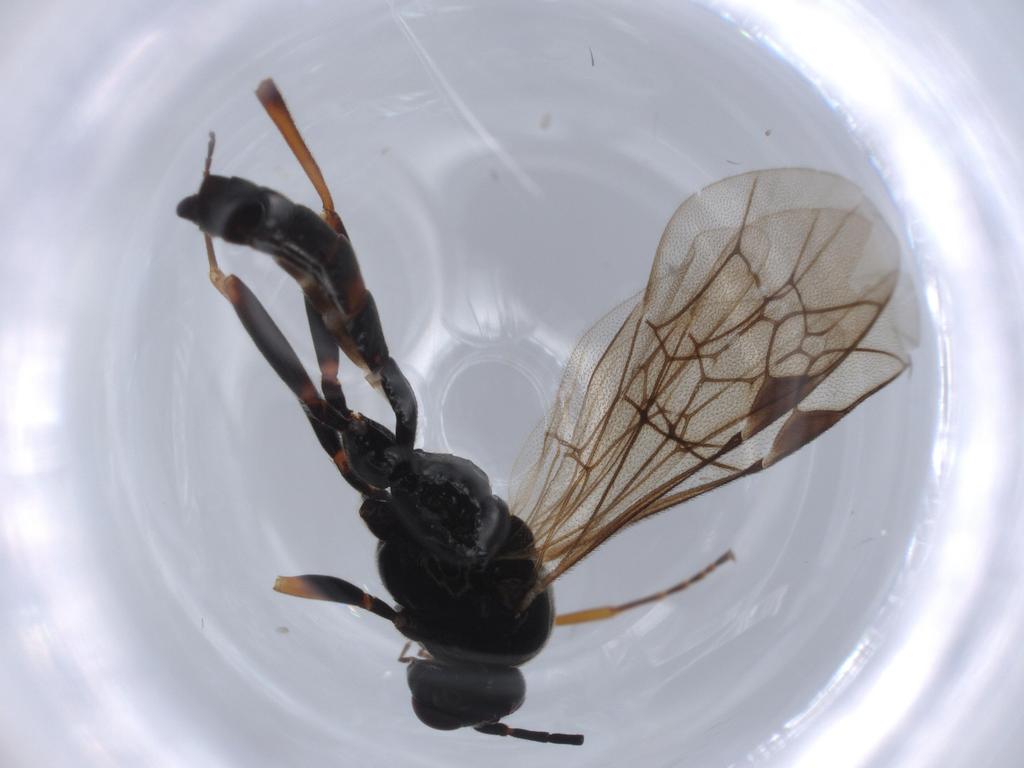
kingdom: Animalia
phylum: Arthropoda
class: Insecta
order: Hymenoptera
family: Ichneumonidae
